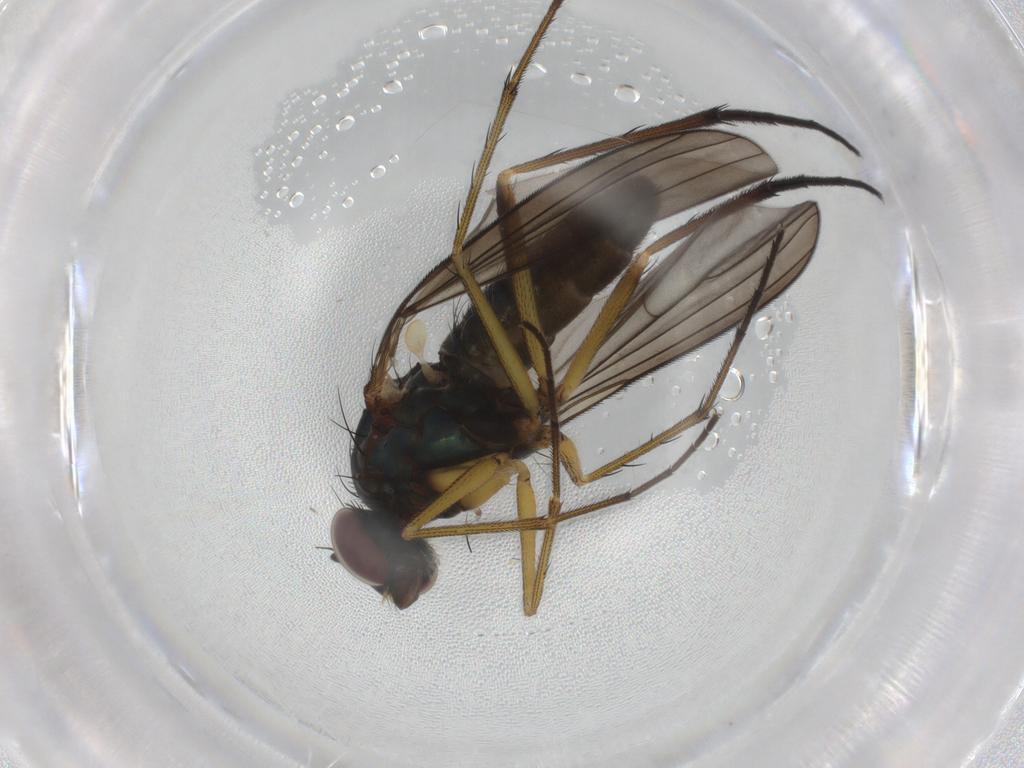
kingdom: Animalia
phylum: Arthropoda
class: Insecta
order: Diptera
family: Dolichopodidae
